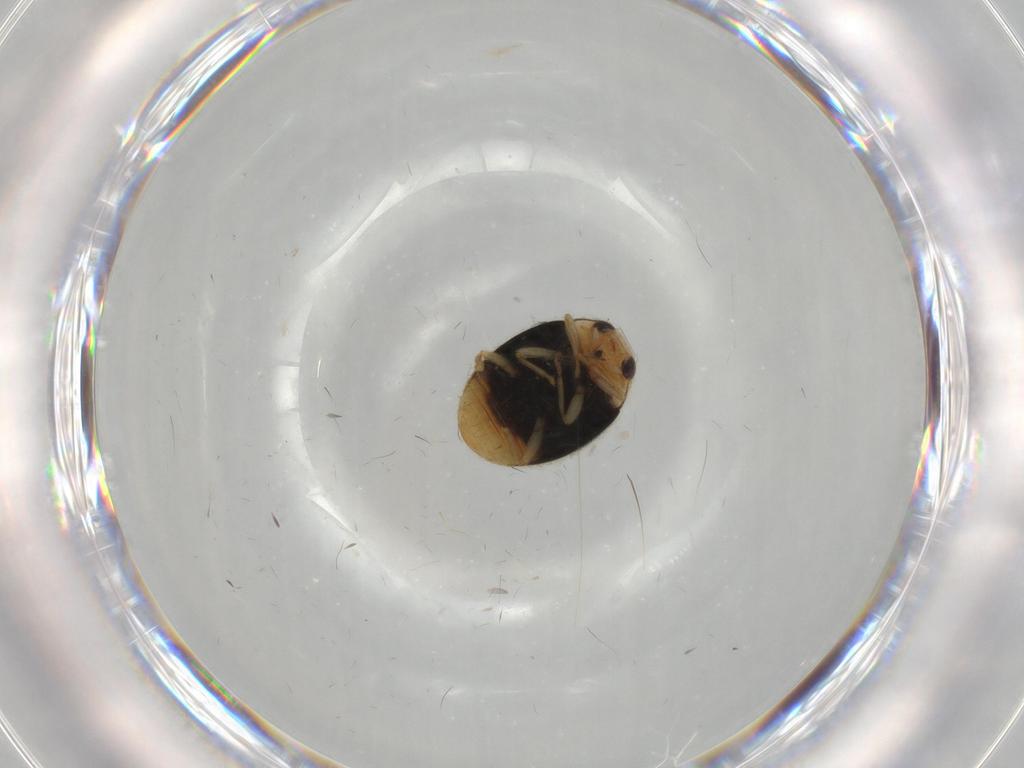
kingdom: Animalia
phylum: Arthropoda
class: Insecta
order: Coleoptera
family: Coccinellidae
